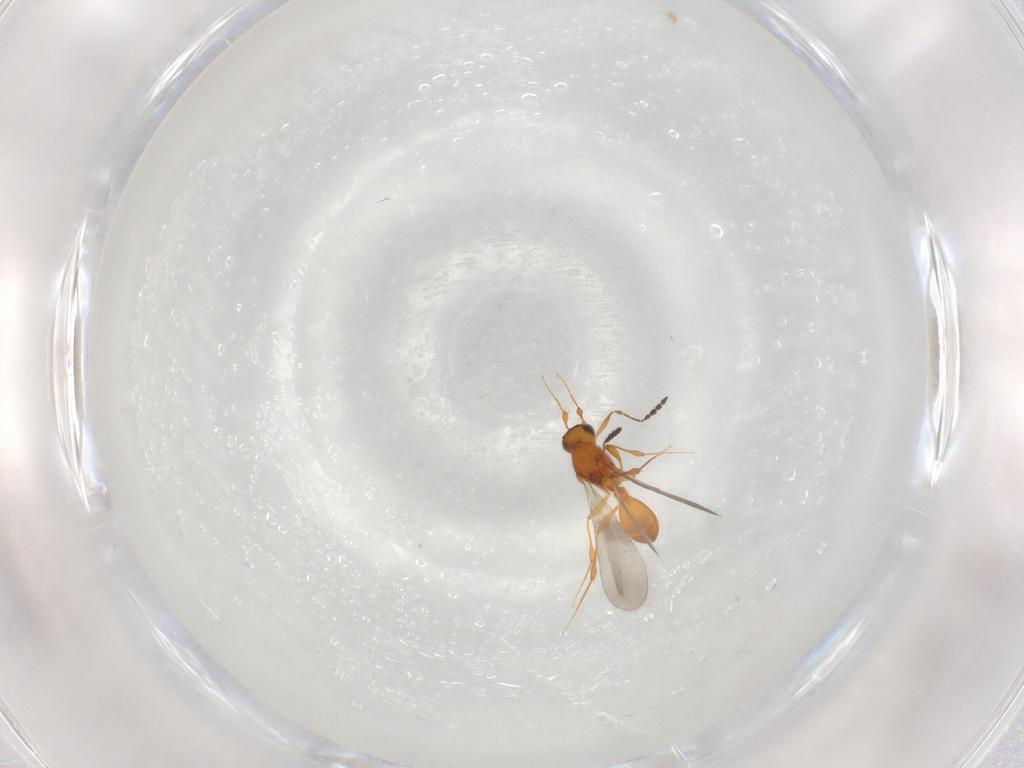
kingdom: Animalia
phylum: Arthropoda
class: Insecta
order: Hymenoptera
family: Platygastridae
